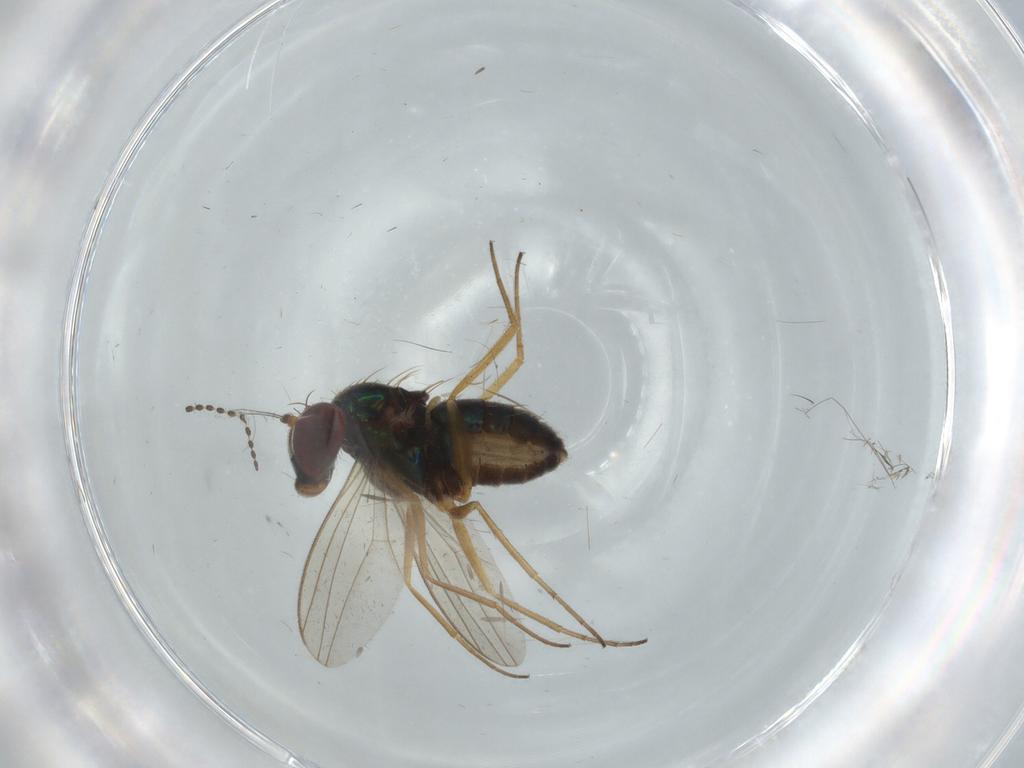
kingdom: Animalia
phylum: Arthropoda
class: Insecta
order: Diptera
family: Dolichopodidae
